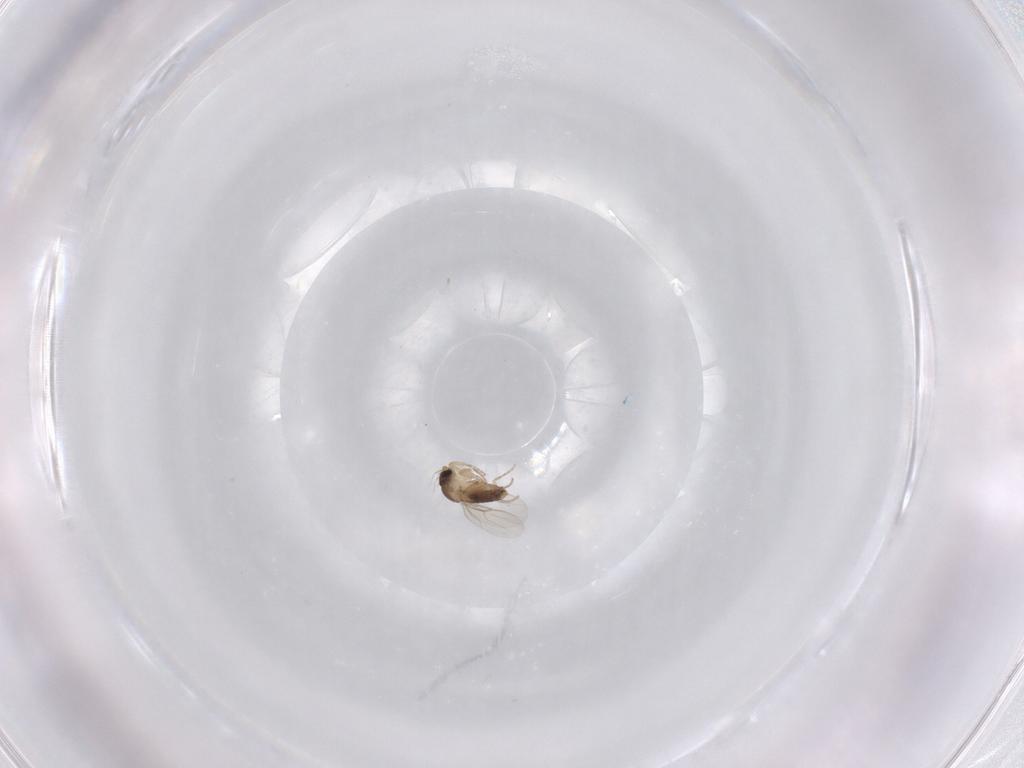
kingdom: Animalia
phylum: Arthropoda
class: Insecta
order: Diptera
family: Phoridae
